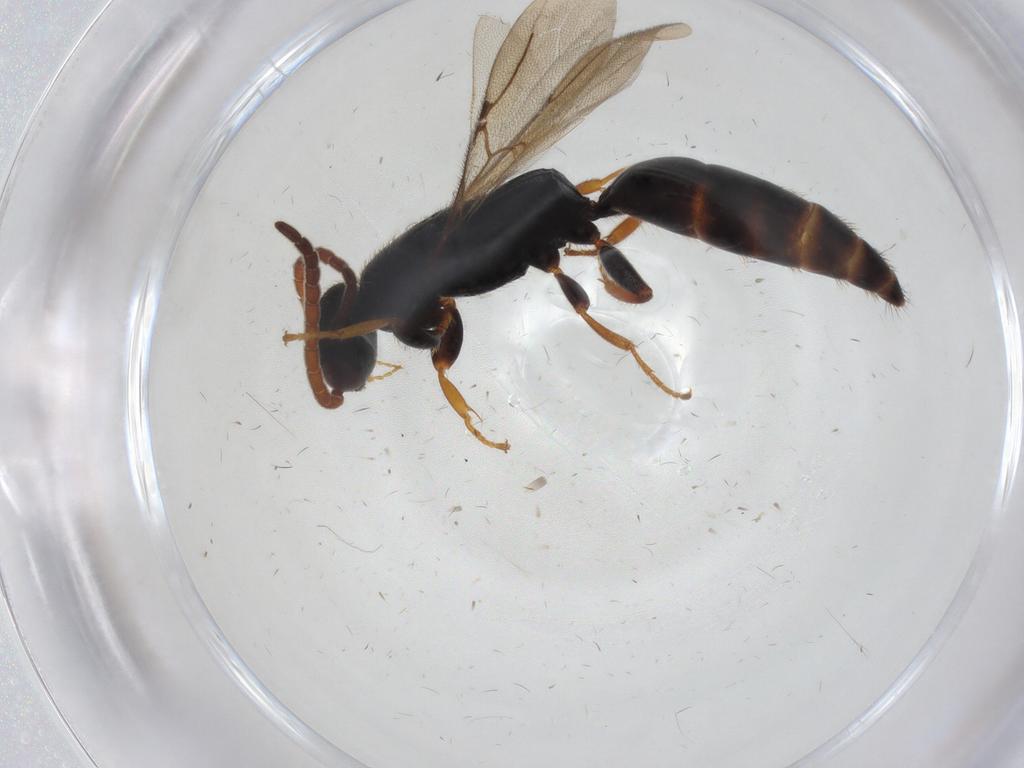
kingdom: Animalia
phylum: Arthropoda
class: Insecta
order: Hymenoptera
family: Bethylidae
